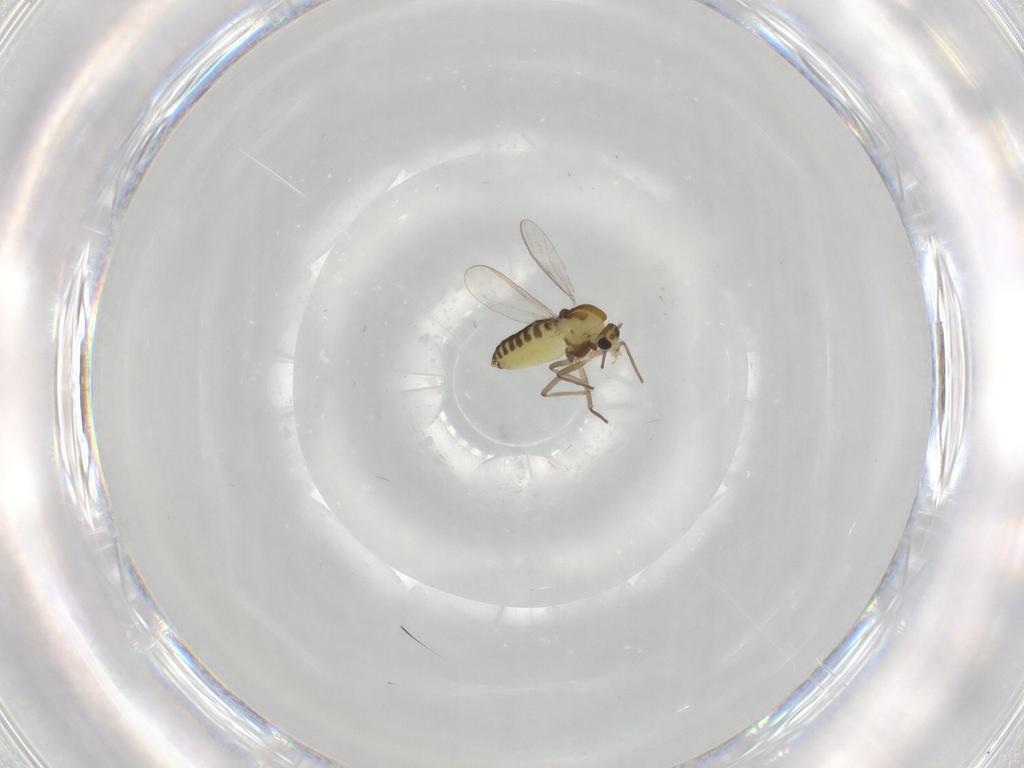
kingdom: Animalia
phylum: Arthropoda
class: Insecta
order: Diptera
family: Chironomidae
